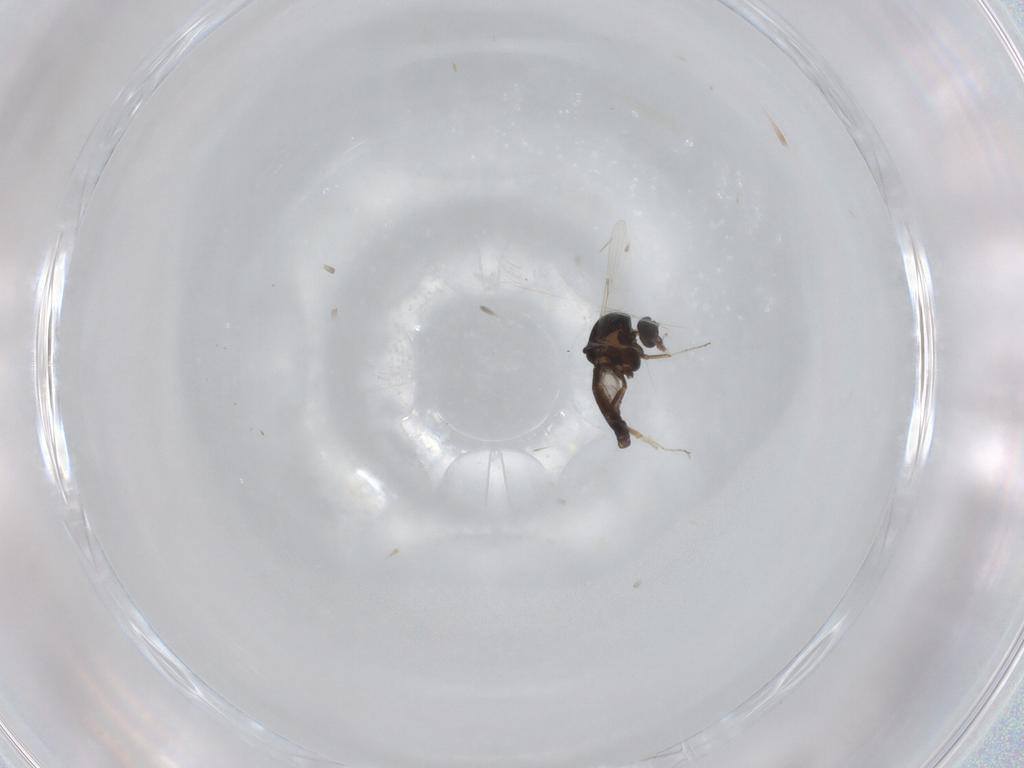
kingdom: Animalia
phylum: Arthropoda
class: Insecta
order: Diptera
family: Ceratopogonidae
